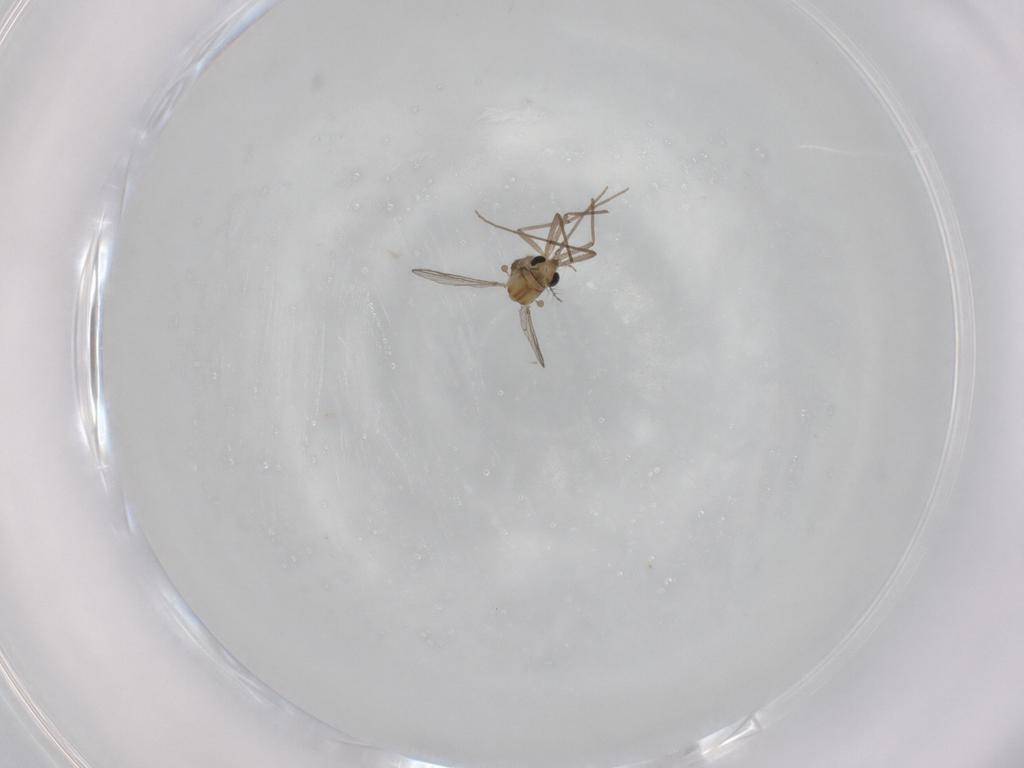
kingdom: Animalia
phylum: Arthropoda
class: Insecta
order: Diptera
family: Chironomidae
